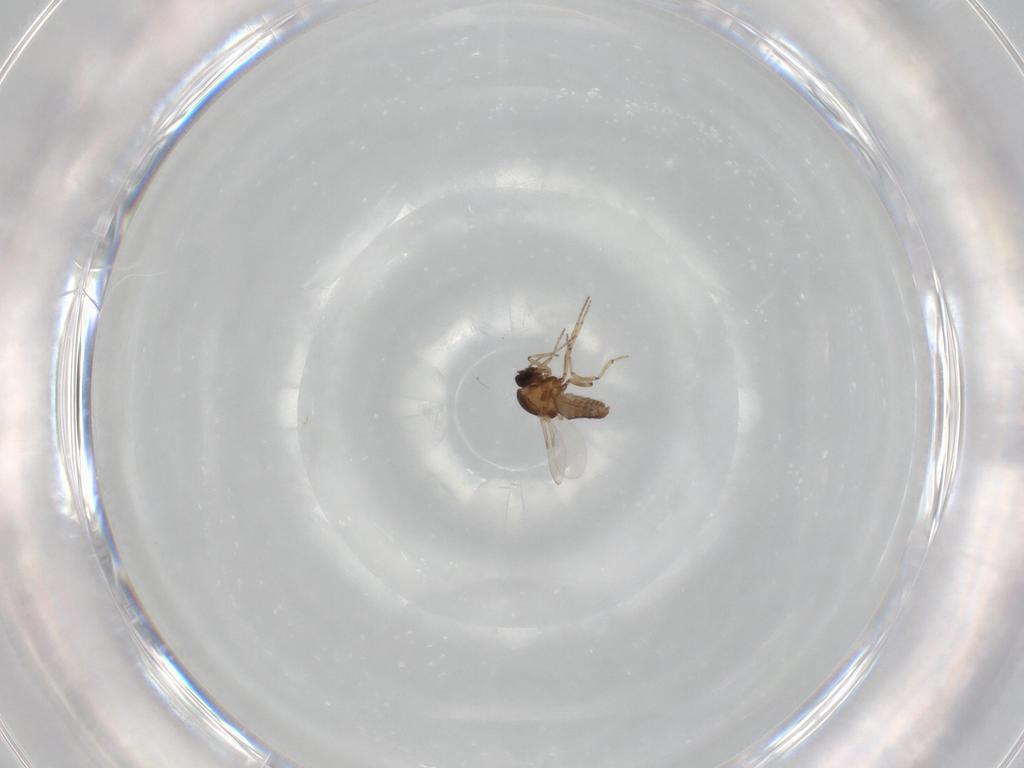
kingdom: Animalia
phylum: Arthropoda
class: Insecta
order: Diptera
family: Ceratopogonidae
